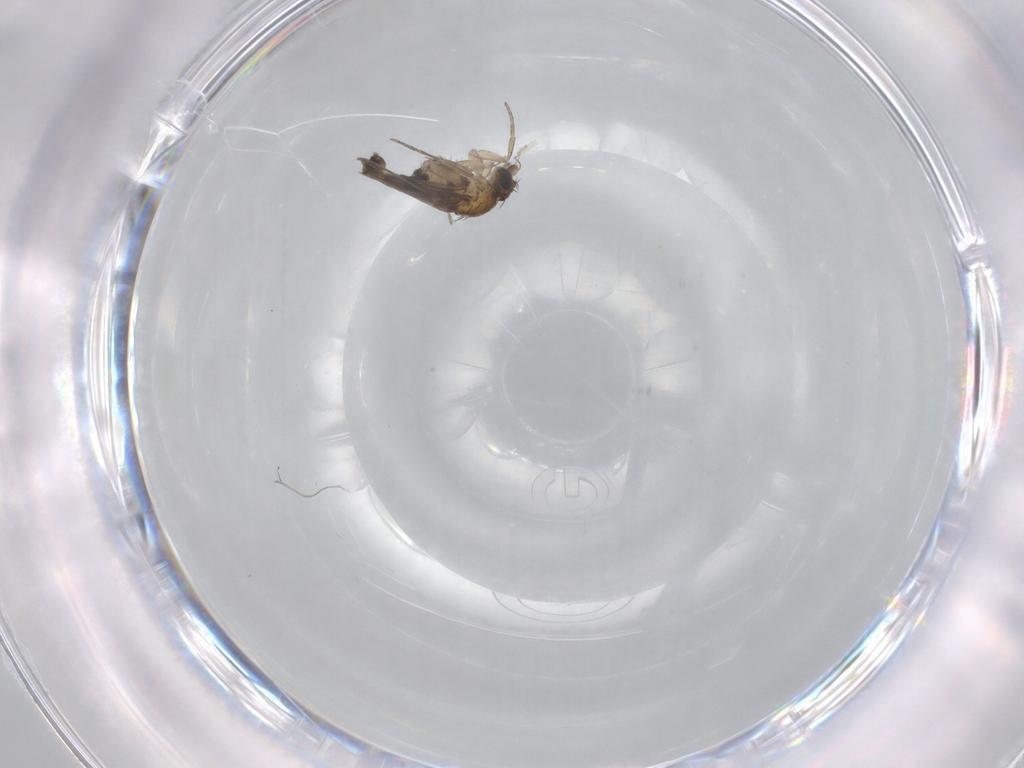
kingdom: Animalia
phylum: Arthropoda
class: Insecta
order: Diptera
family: Phoridae
